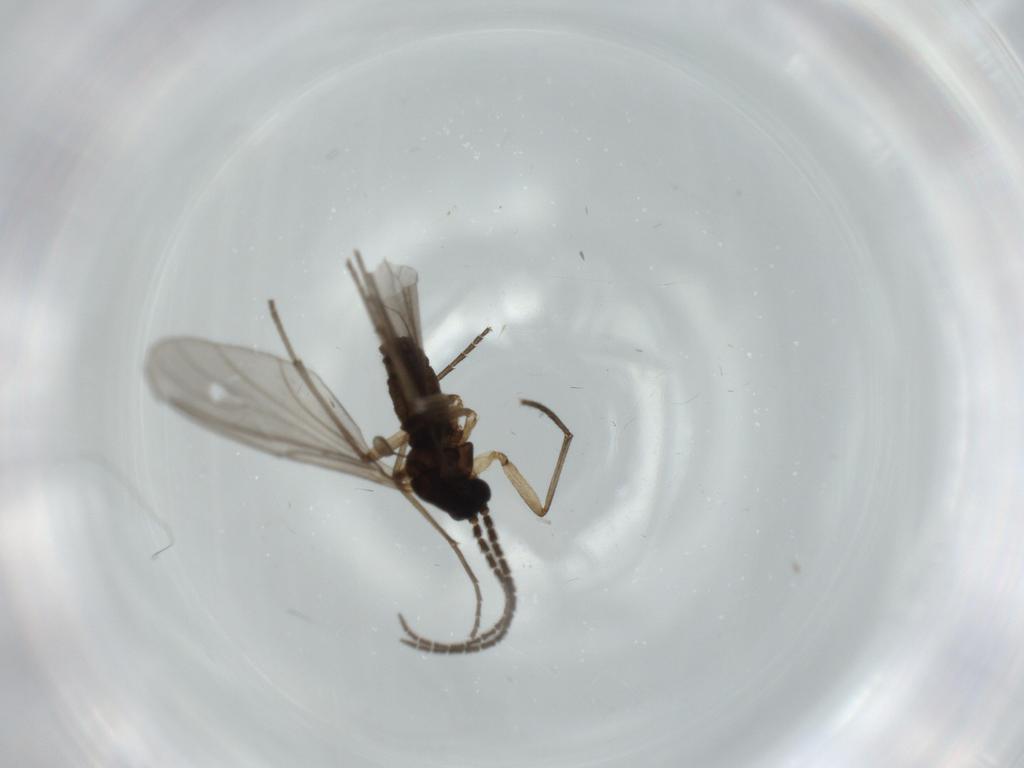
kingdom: Animalia
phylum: Arthropoda
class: Insecta
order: Diptera
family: Sciaridae
